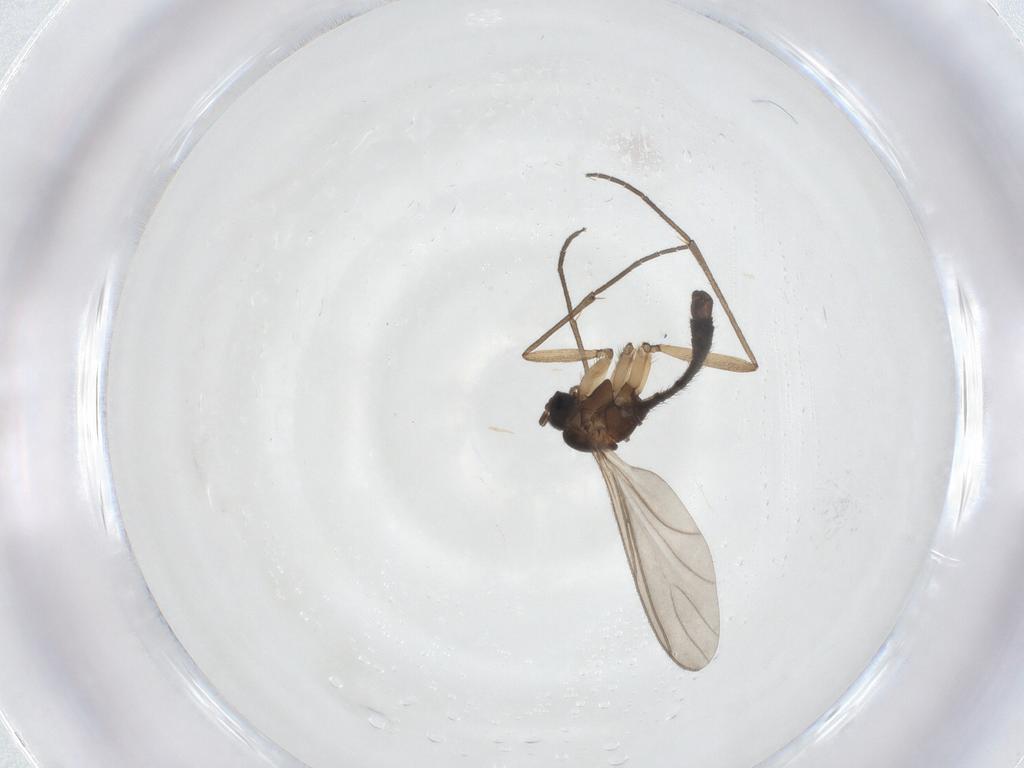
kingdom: Animalia
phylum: Arthropoda
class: Insecta
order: Diptera
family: Sciaridae
